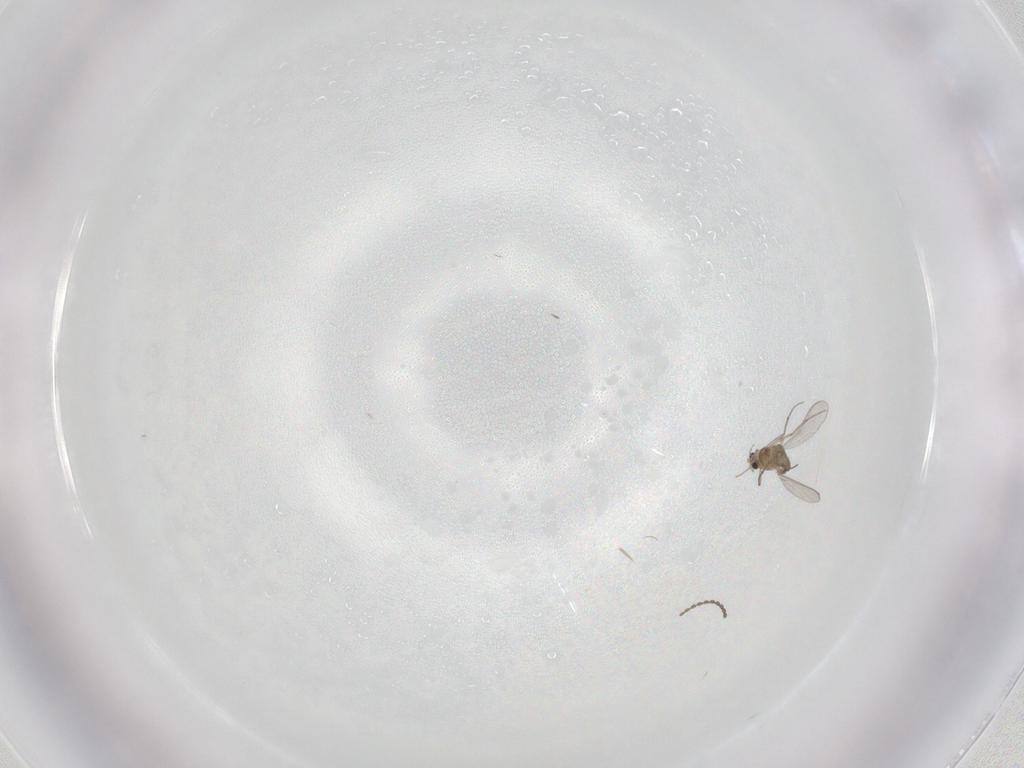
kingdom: Animalia
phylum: Arthropoda
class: Insecta
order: Diptera
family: Chironomidae
